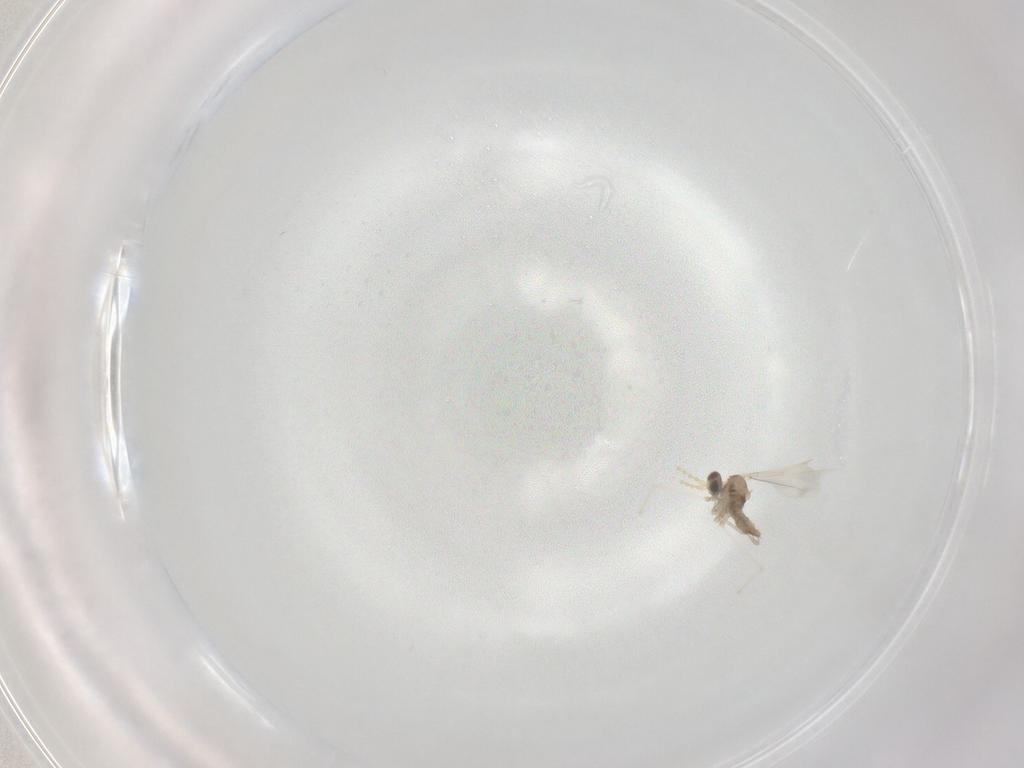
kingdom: Animalia
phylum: Arthropoda
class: Insecta
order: Diptera
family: Cecidomyiidae
